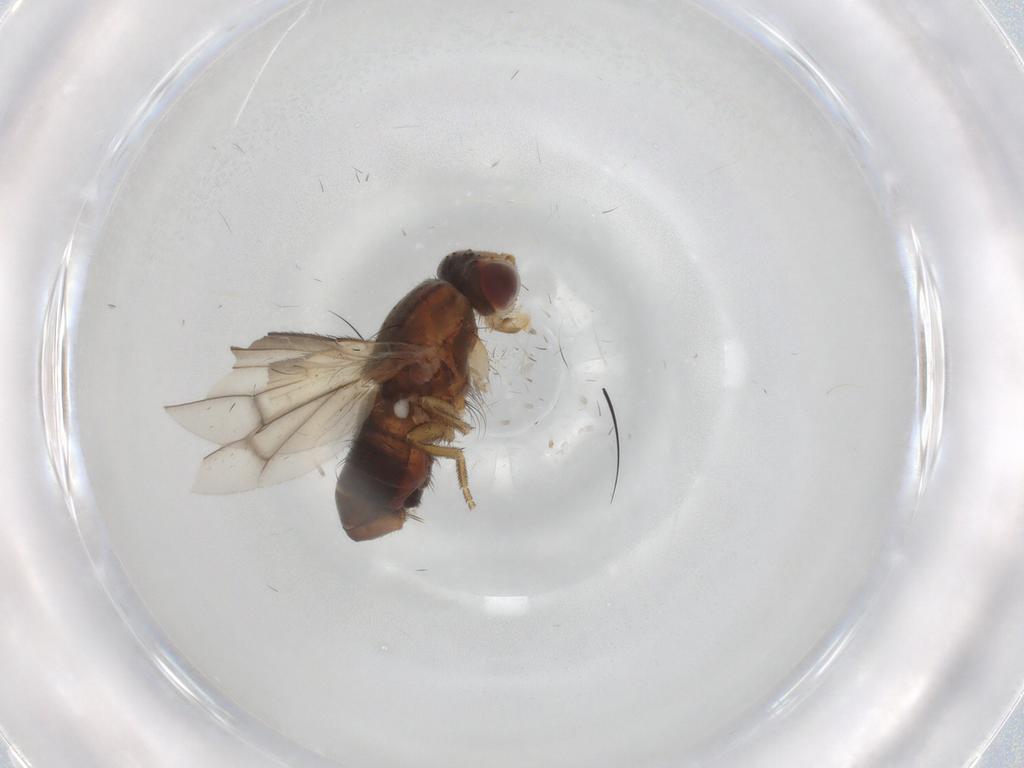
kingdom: Animalia
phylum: Arthropoda
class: Insecta
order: Diptera
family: Heleomyzidae
